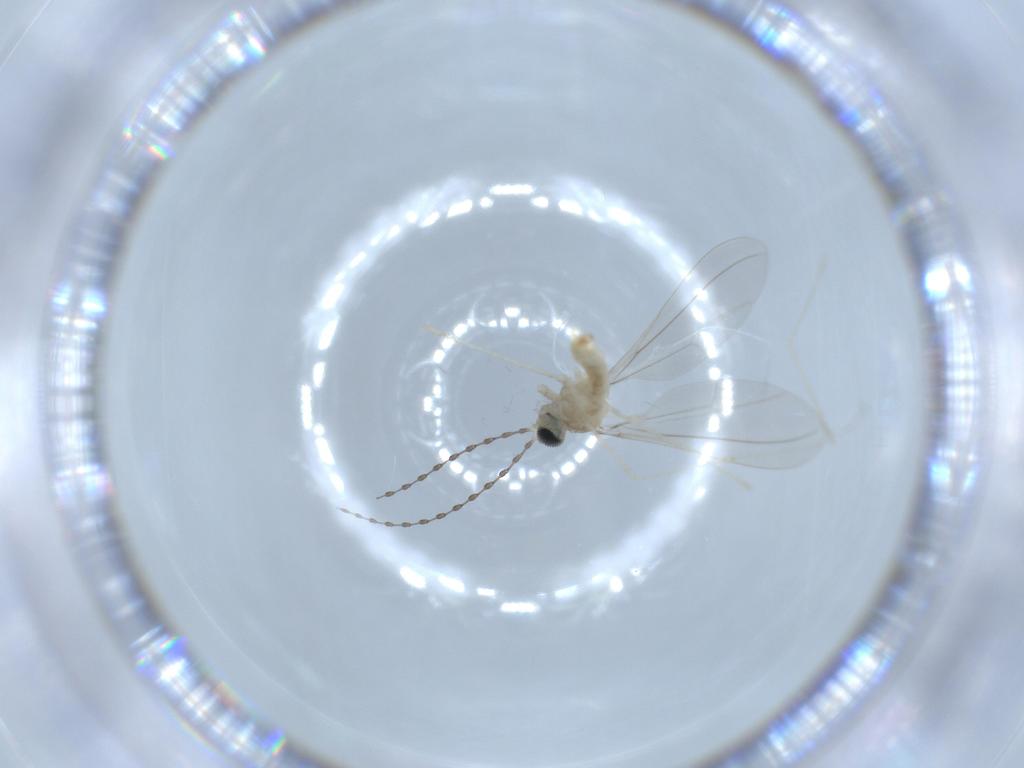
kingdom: Animalia
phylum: Arthropoda
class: Insecta
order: Diptera
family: Cecidomyiidae
